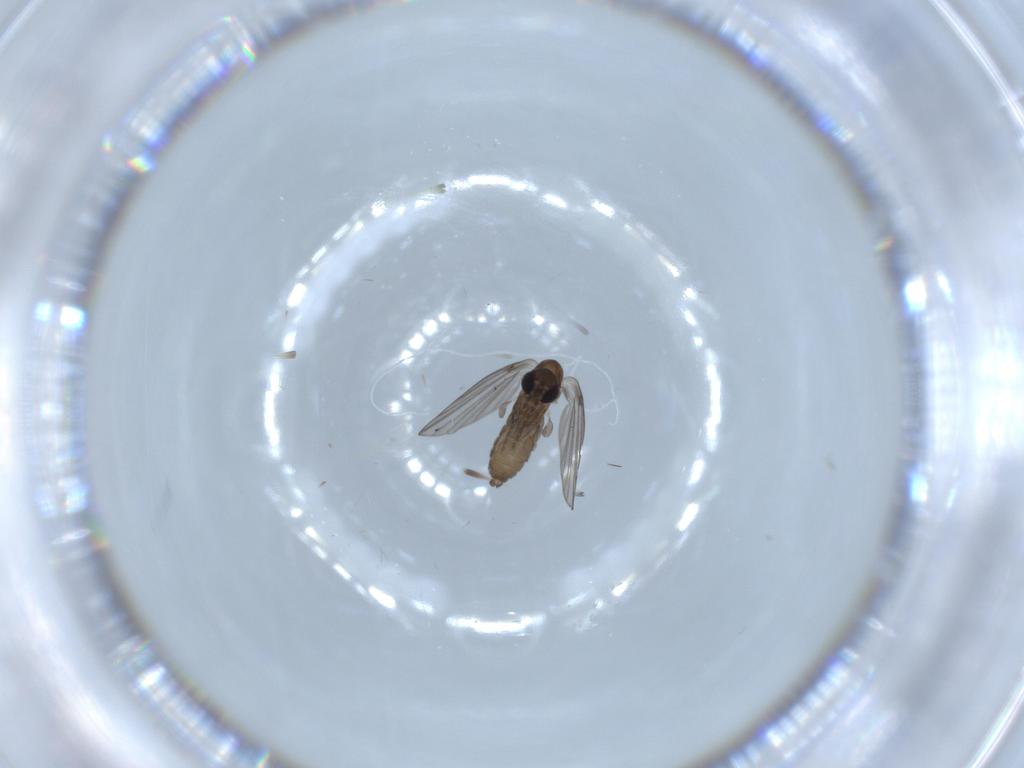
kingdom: Animalia
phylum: Arthropoda
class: Insecta
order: Diptera
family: Psychodidae
